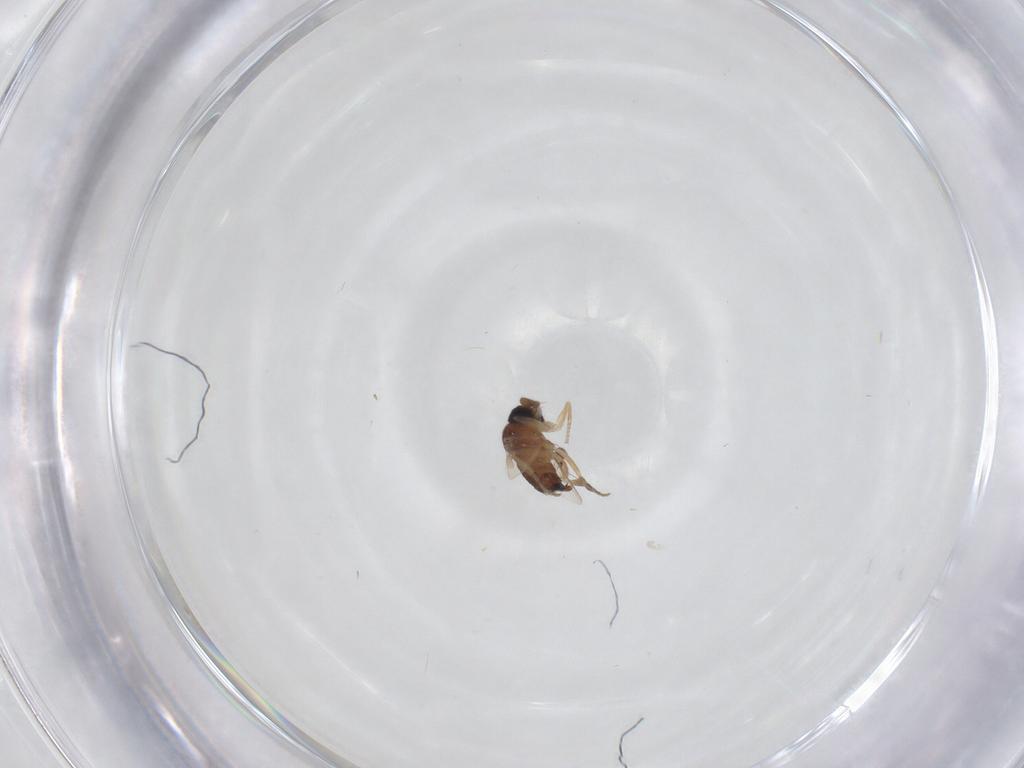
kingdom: Animalia
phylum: Arthropoda
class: Insecta
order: Diptera
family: Phoridae
